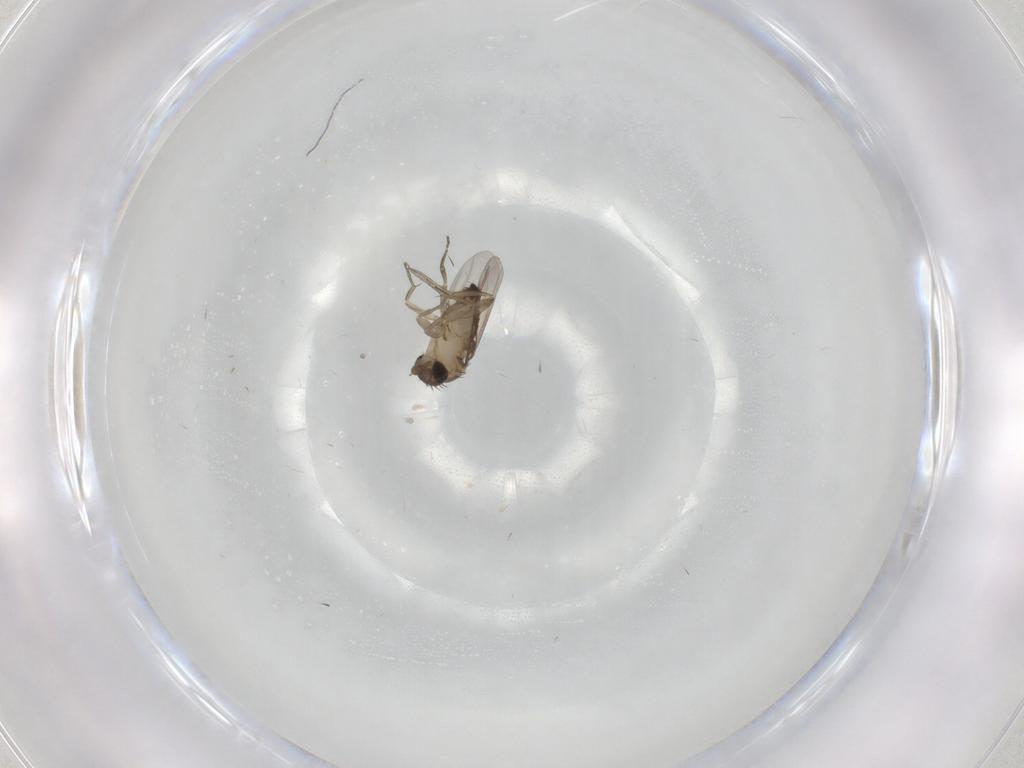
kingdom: Animalia
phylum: Arthropoda
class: Insecta
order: Diptera
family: Phoridae
